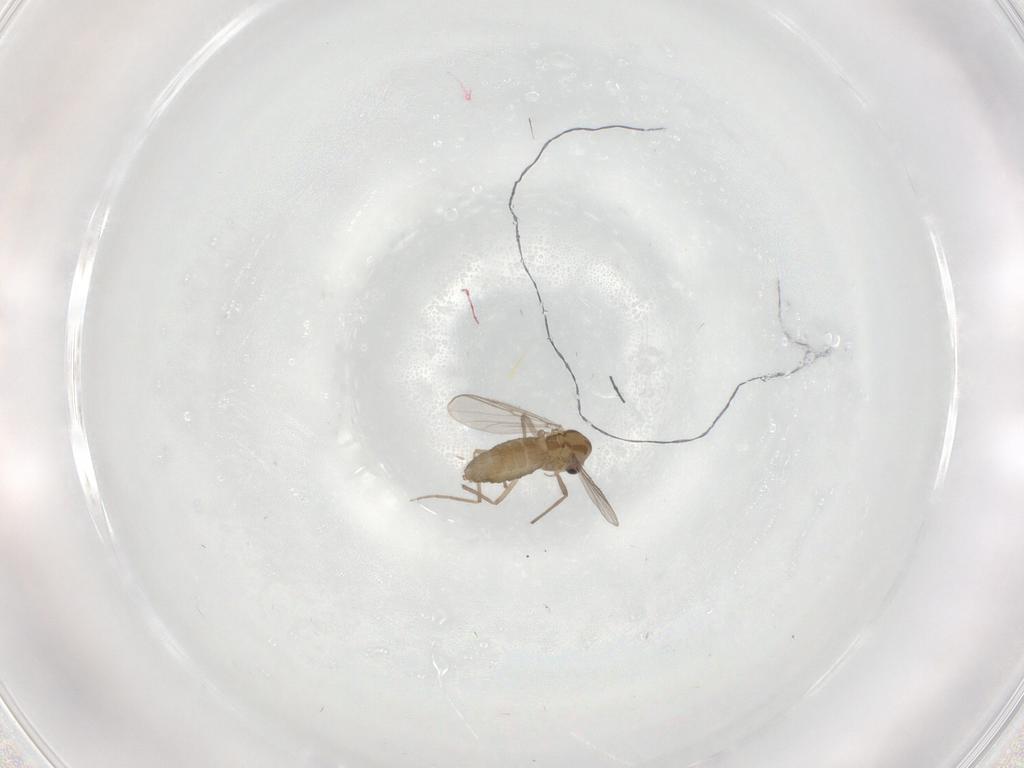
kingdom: Animalia
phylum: Arthropoda
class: Insecta
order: Diptera
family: Chironomidae
